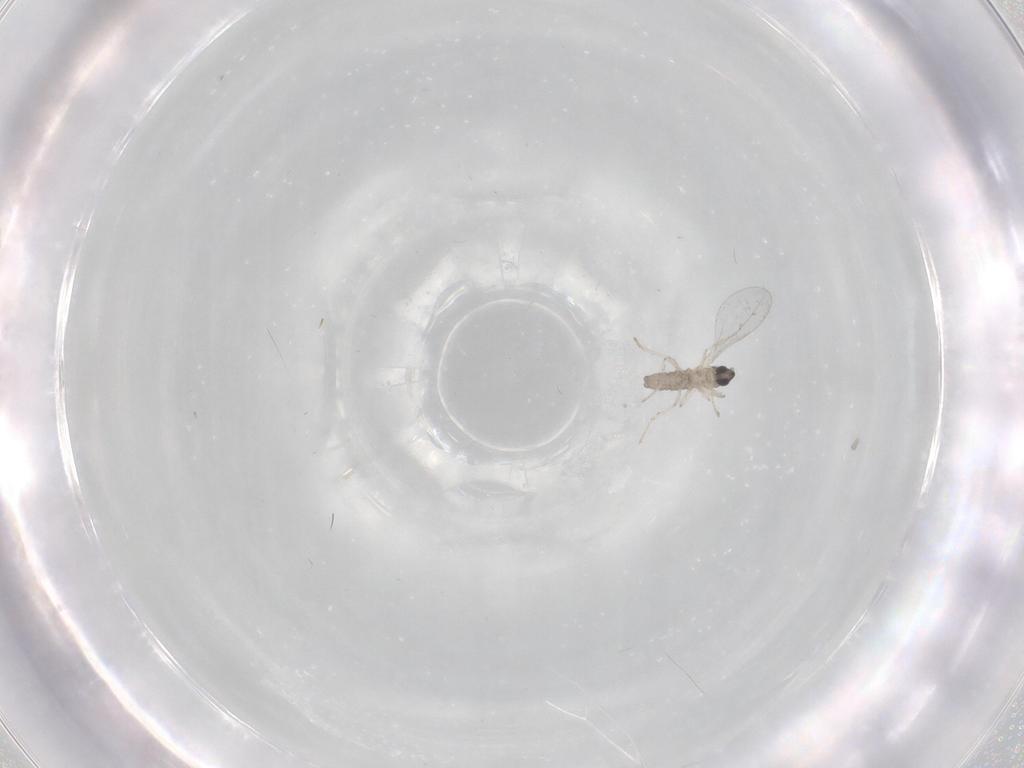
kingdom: Animalia
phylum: Arthropoda
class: Insecta
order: Diptera
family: Cecidomyiidae
